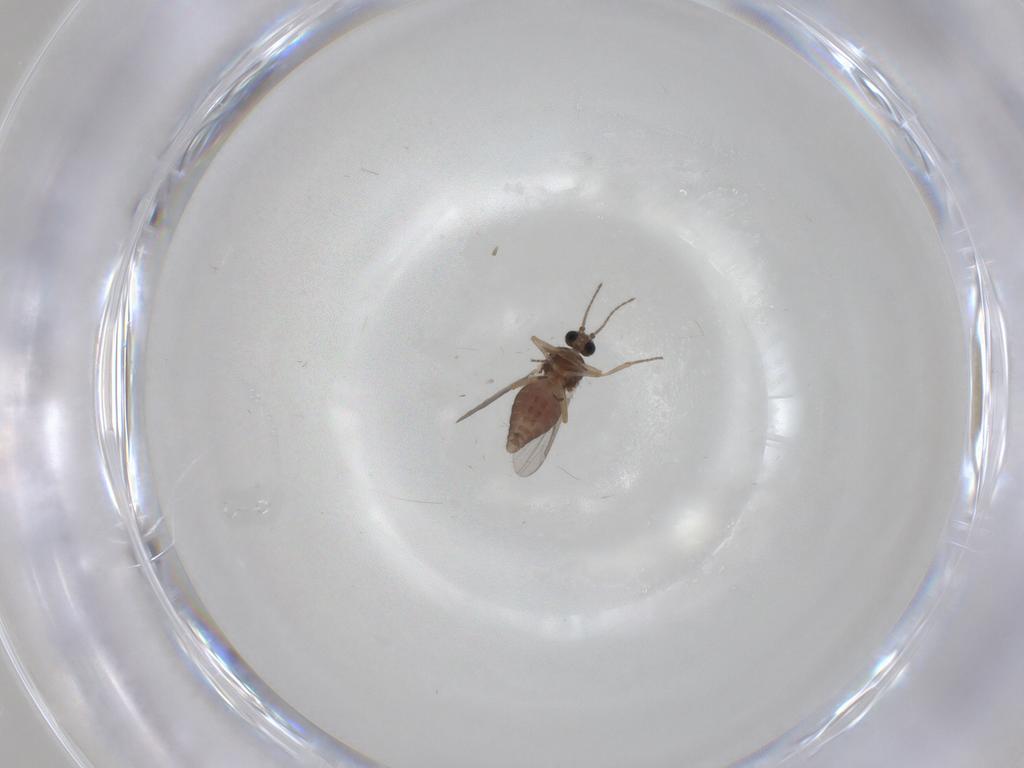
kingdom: Animalia
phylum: Arthropoda
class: Insecta
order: Diptera
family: Ceratopogonidae
